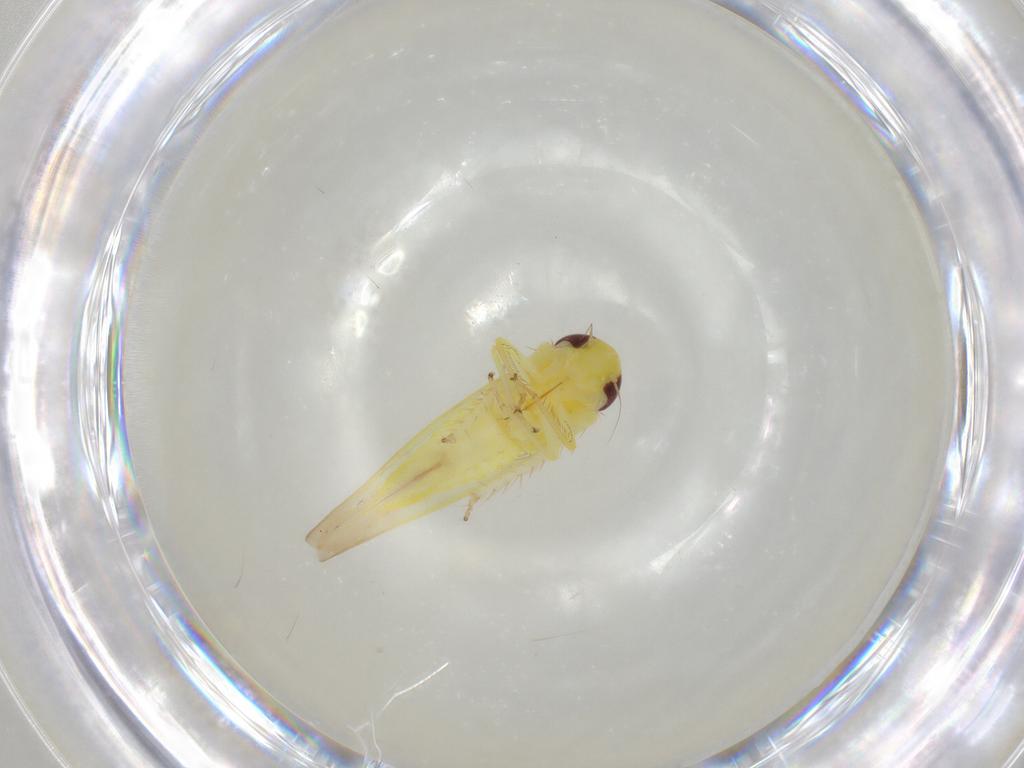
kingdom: Animalia
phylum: Arthropoda
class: Insecta
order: Hemiptera
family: Cicadellidae
